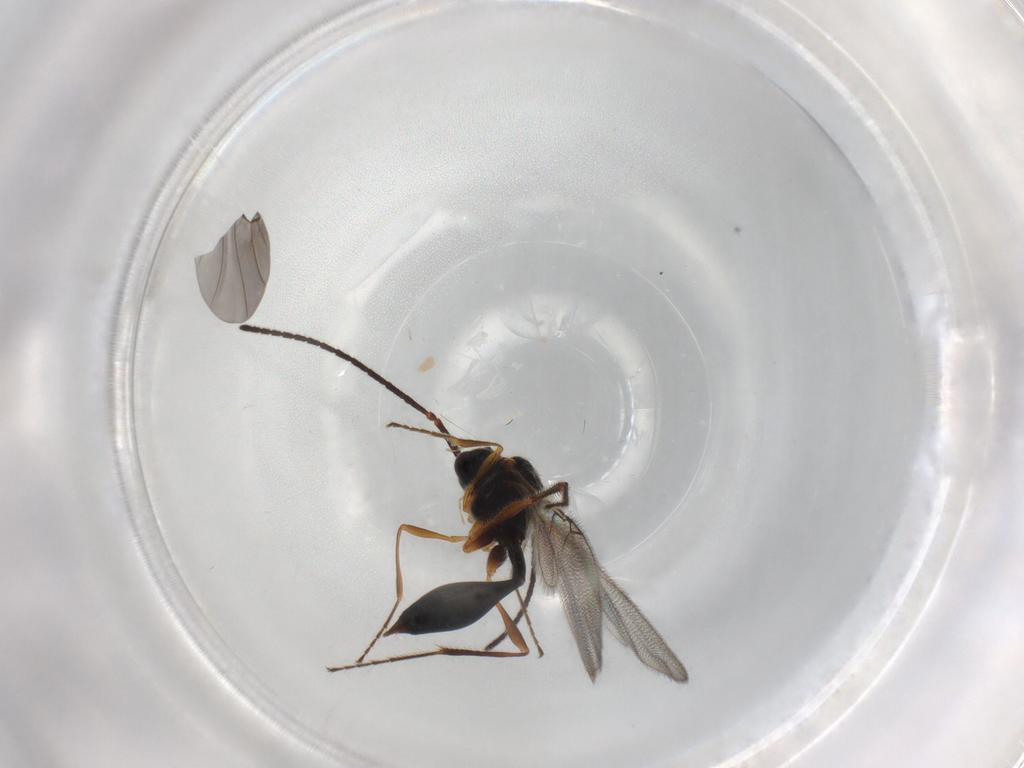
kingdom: Animalia
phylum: Arthropoda
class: Insecta
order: Hymenoptera
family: Diapriidae
